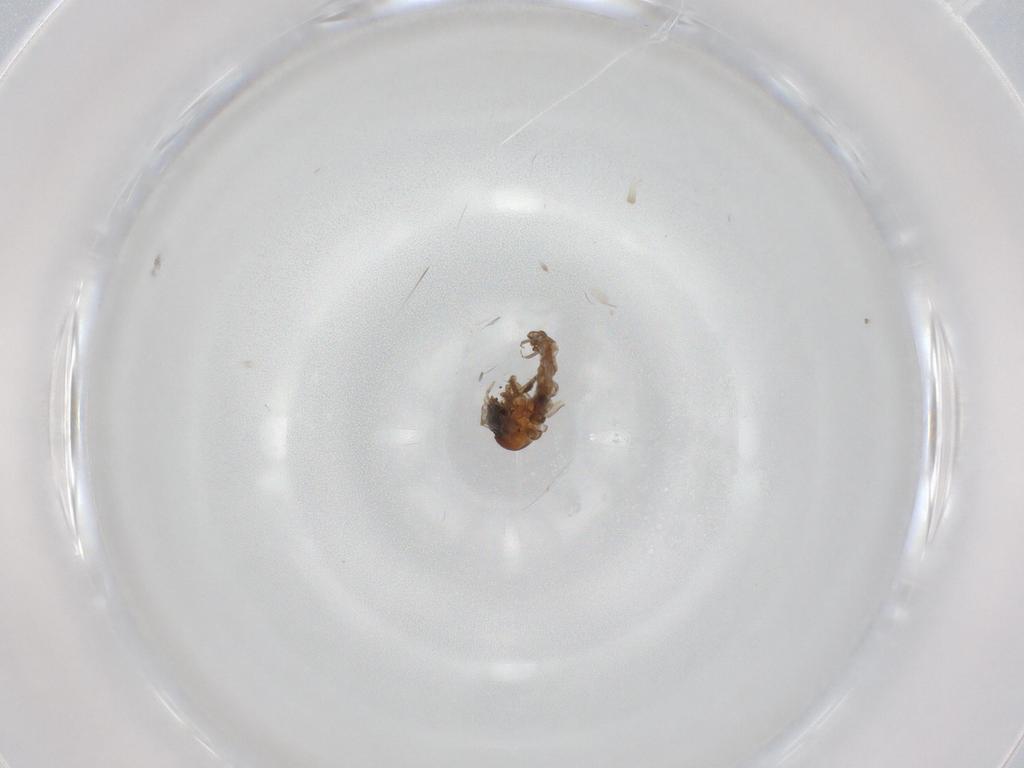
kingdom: Animalia
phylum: Arthropoda
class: Insecta
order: Diptera
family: Psychodidae
